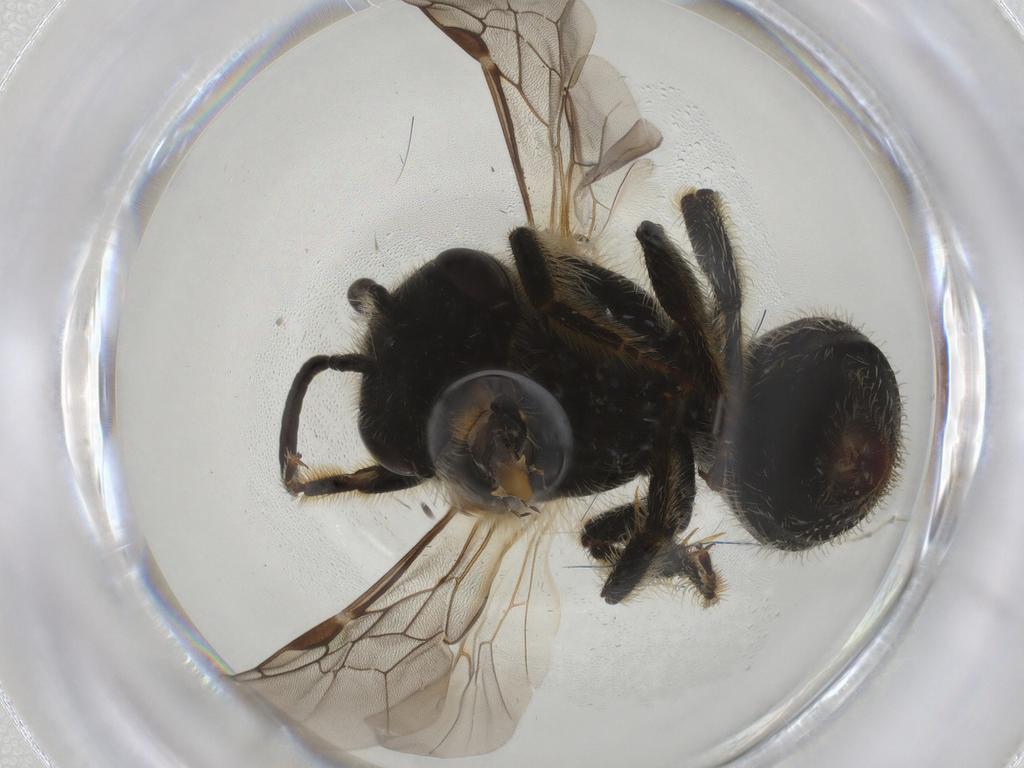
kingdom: Animalia
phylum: Arthropoda
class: Insecta
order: Hymenoptera
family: Andrenidae
